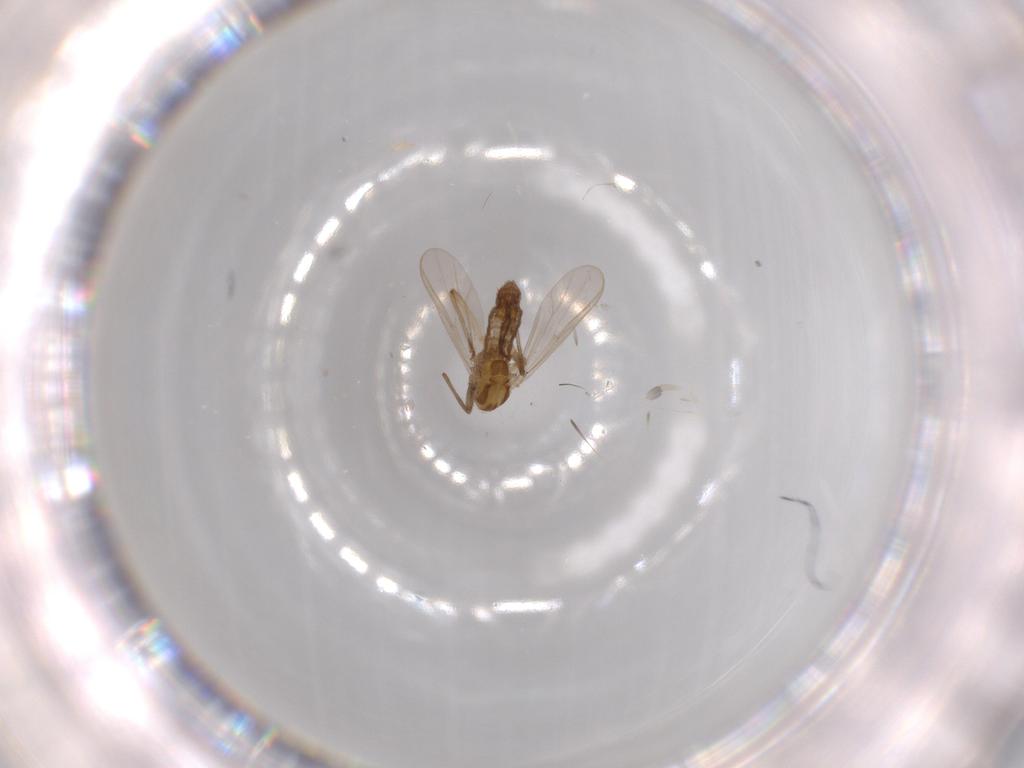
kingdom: Animalia
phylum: Arthropoda
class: Insecta
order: Diptera
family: Chironomidae
